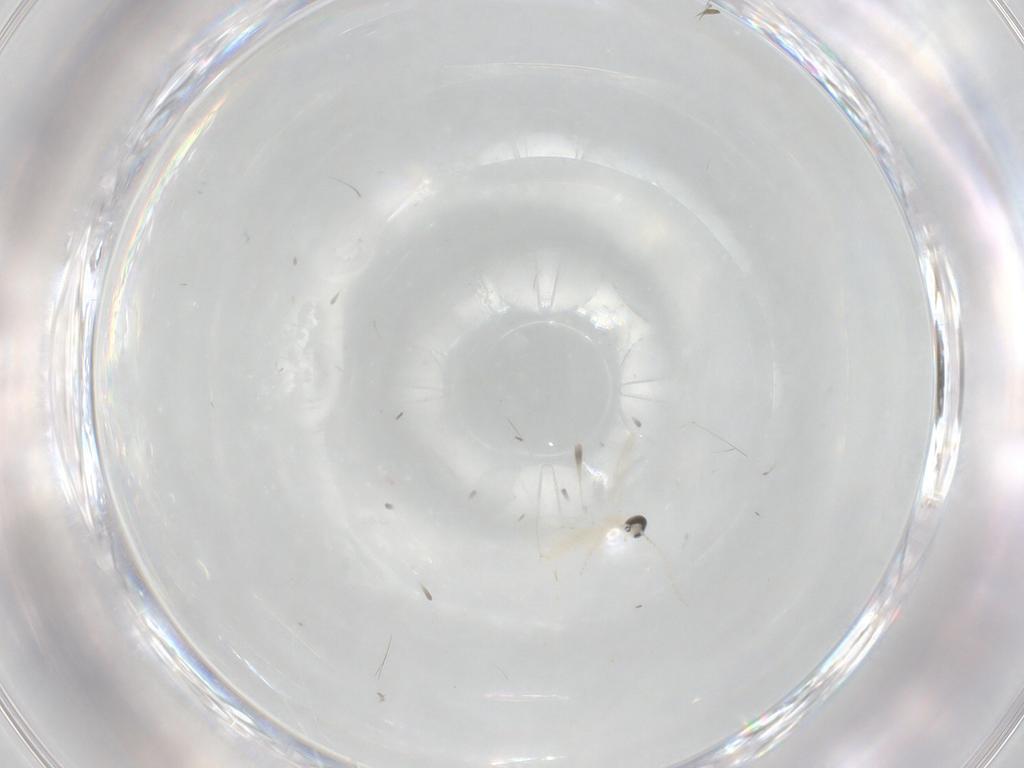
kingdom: Animalia
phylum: Arthropoda
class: Insecta
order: Diptera
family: Cecidomyiidae
